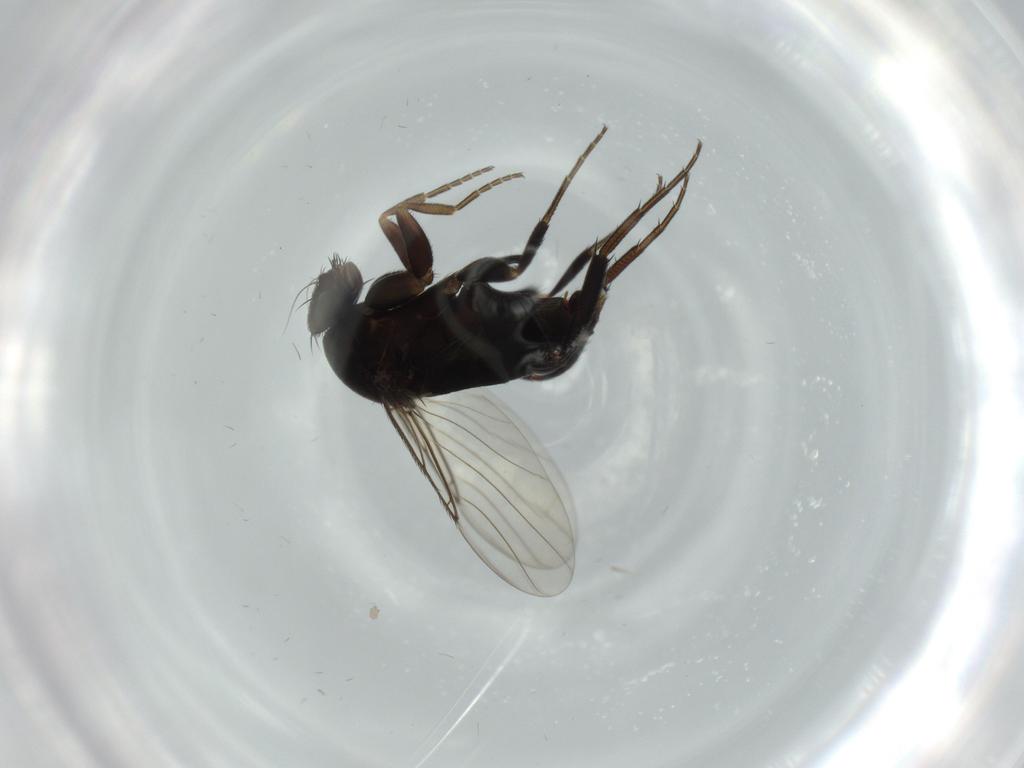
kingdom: Animalia
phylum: Arthropoda
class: Insecta
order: Diptera
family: Phoridae
